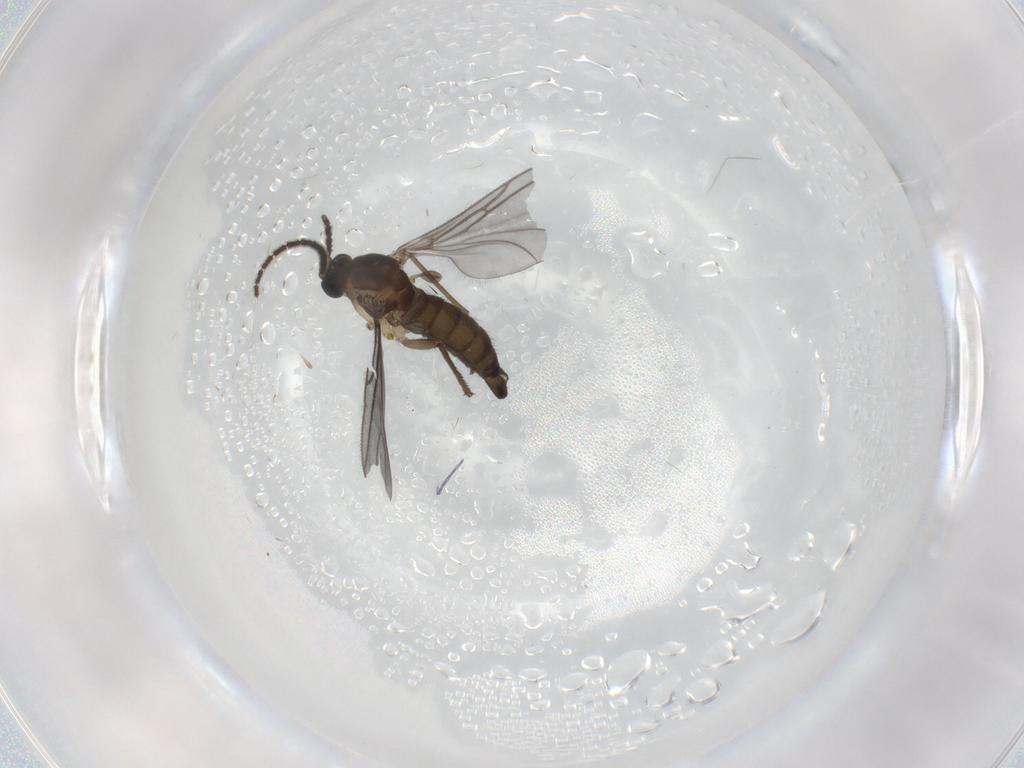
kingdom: Animalia
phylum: Arthropoda
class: Insecta
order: Diptera
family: Sciaridae
